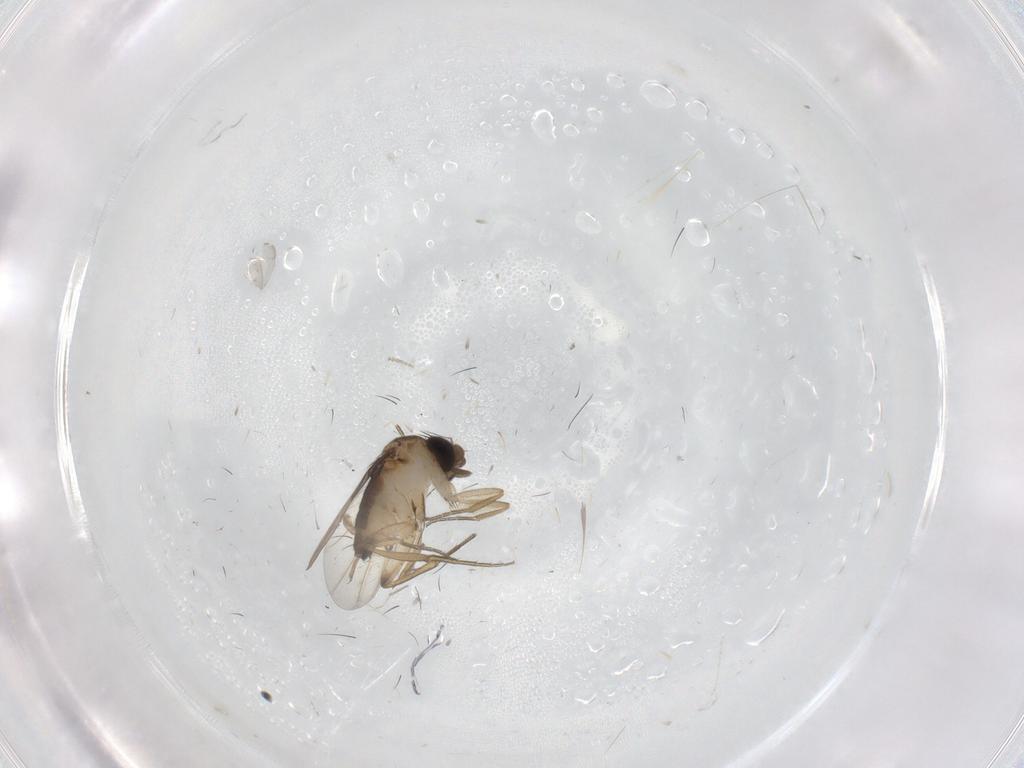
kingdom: Animalia
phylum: Arthropoda
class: Insecta
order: Diptera
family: Phoridae
